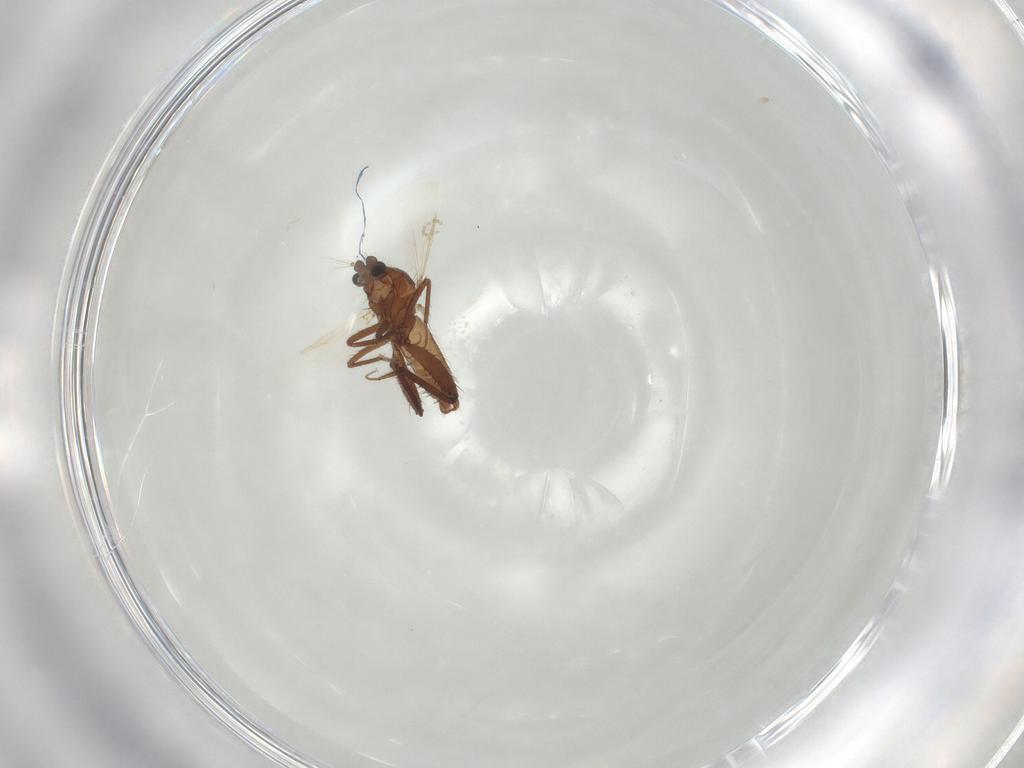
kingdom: Animalia
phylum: Arthropoda
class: Insecta
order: Diptera
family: Ceratopogonidae
